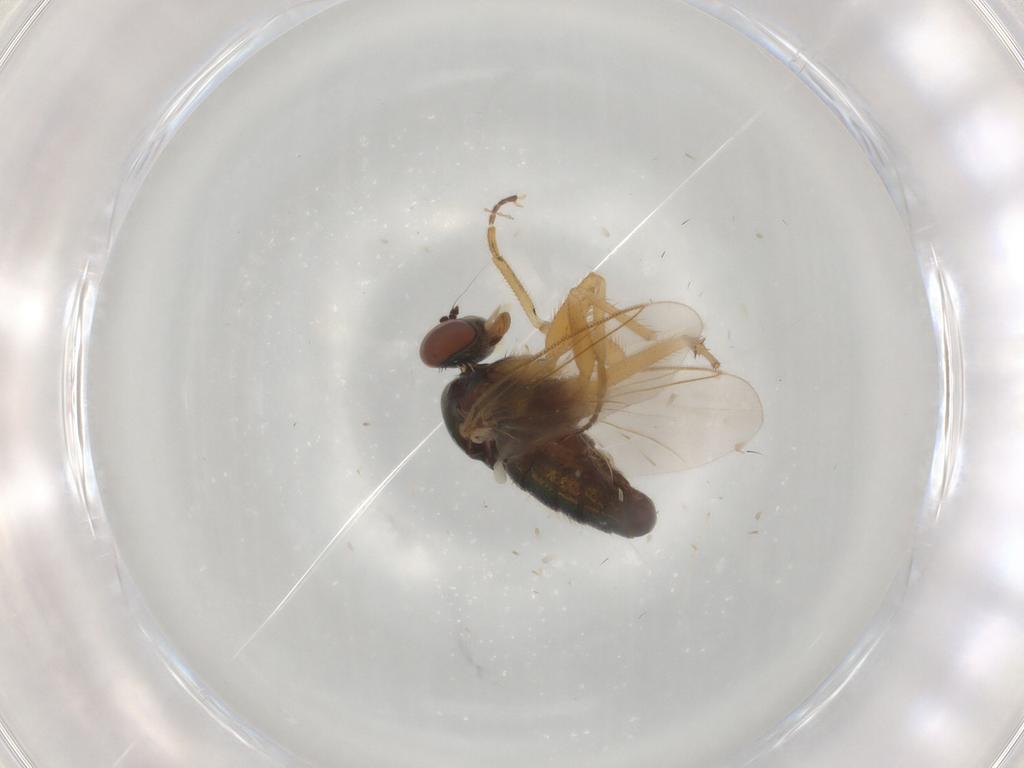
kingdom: Animalia
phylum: Arthropoda
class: Insecta
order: Diptera
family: Dolichopodidae
